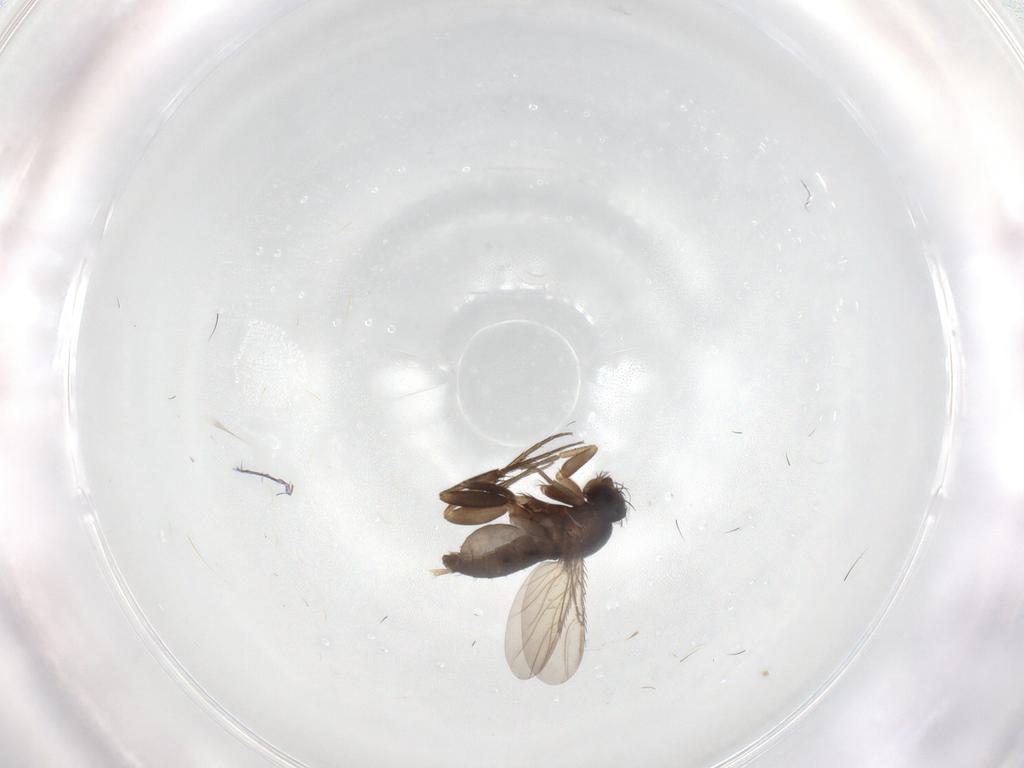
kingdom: Animalia
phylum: Arthropoda
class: Insecta
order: Diptera
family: Phoridae
